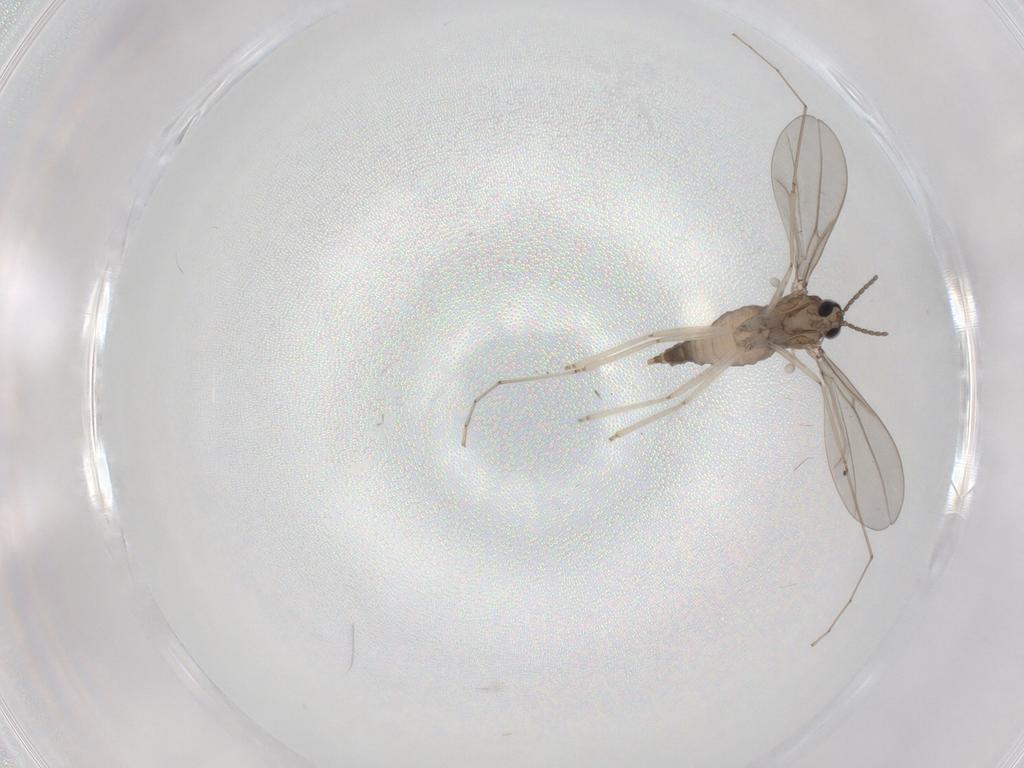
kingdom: Animalia
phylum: Arthropoda
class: Insecta
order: Diptera
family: Cecidomyiidae
